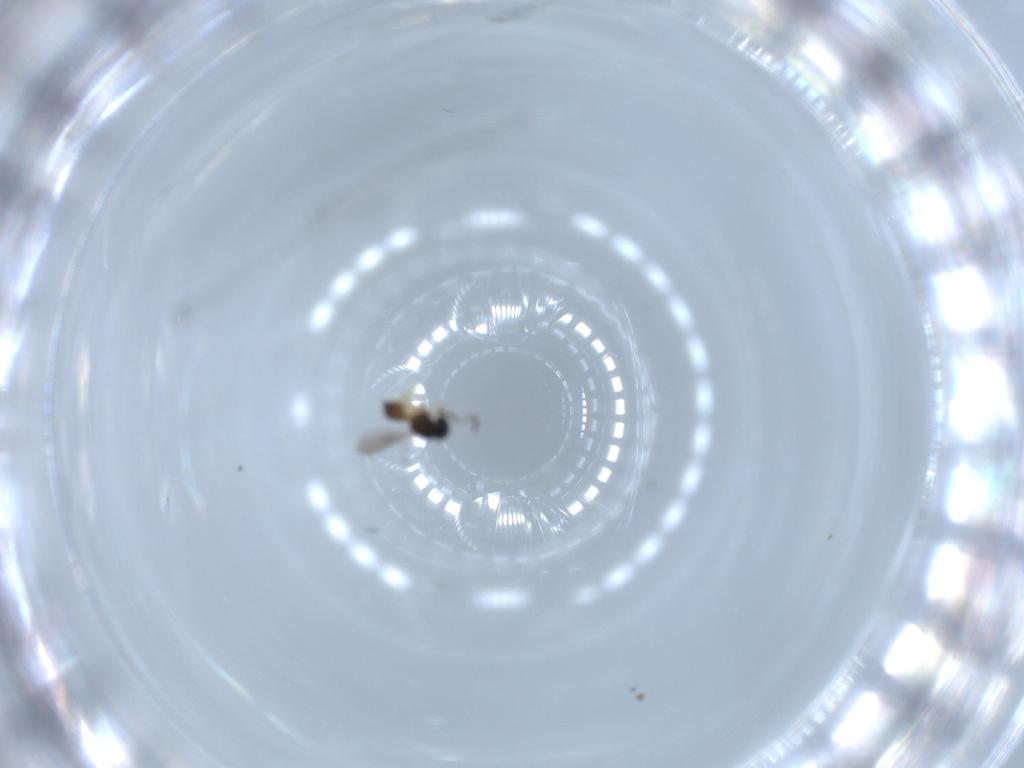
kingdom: Animalia
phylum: Arthropoda
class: Insecta
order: Hymenoptera
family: Scelionidae
